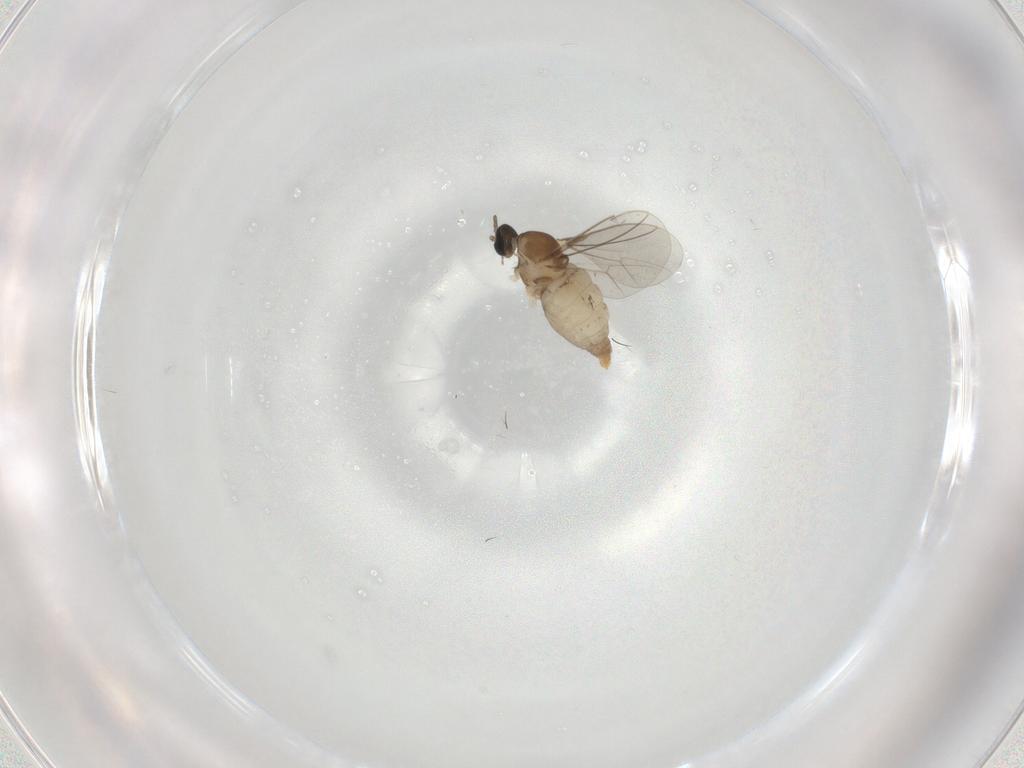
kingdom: Animalia
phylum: Arthropoda
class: Insecta
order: Diptera
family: Cecidomyiidae
